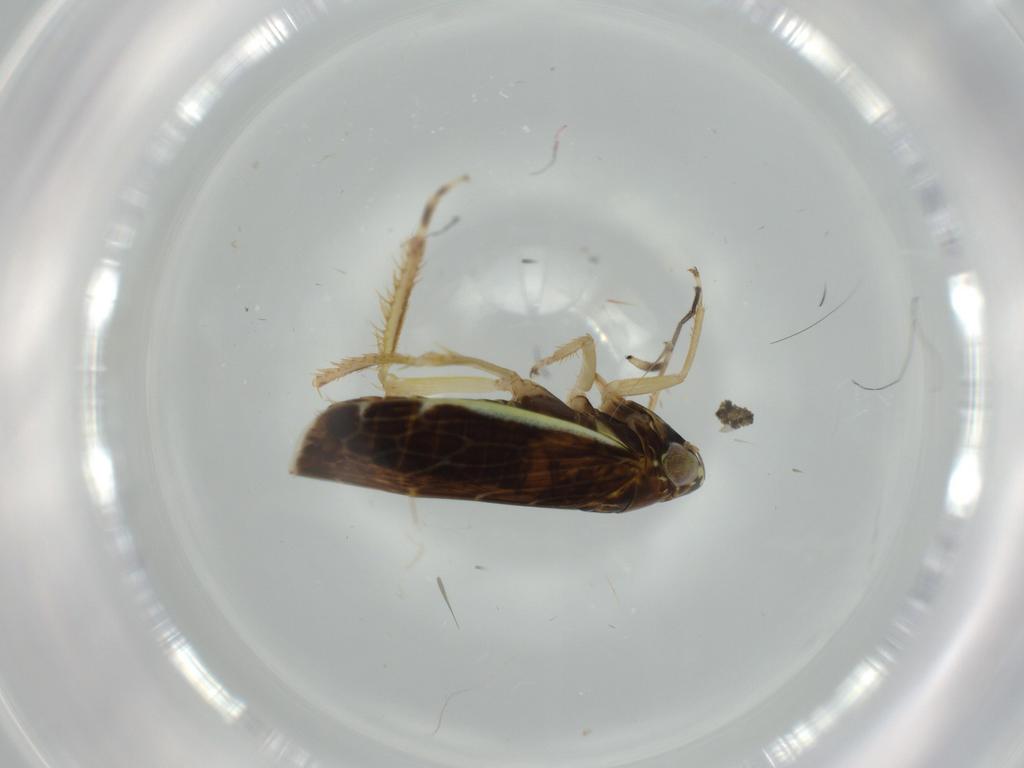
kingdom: Animalia
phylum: Arthropoda
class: Insecta
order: Hemiptera
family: Cicadellidae
